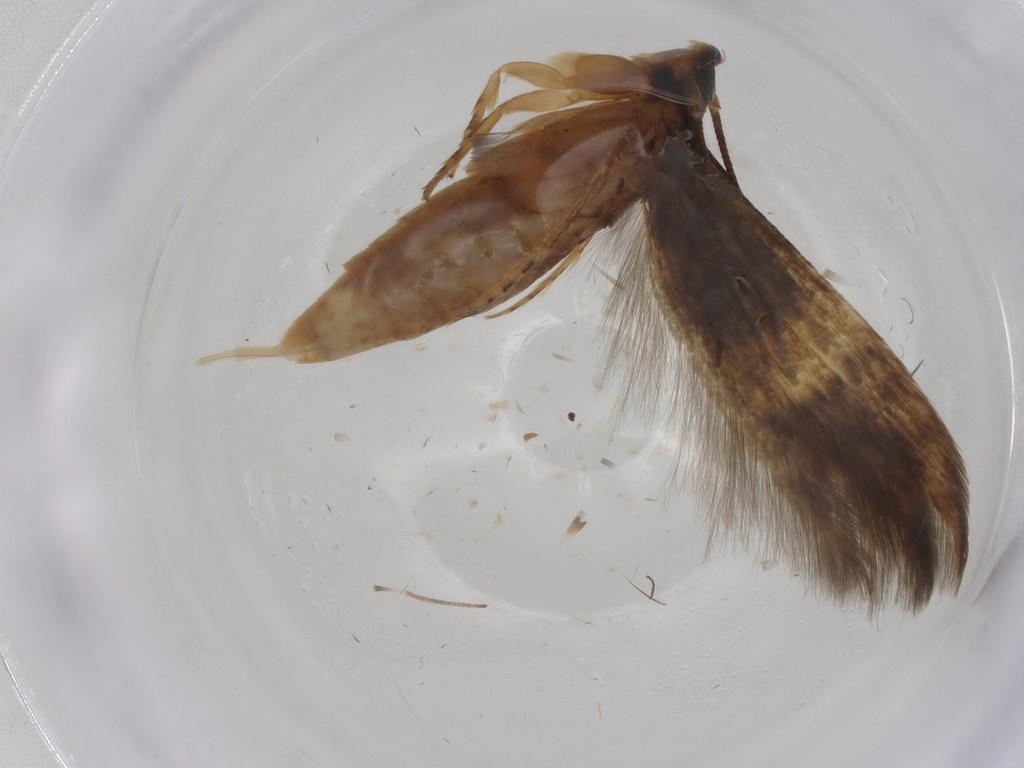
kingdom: Animalia
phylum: Arthropoda
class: Insecta
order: Lepidoptera
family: Tineidae
